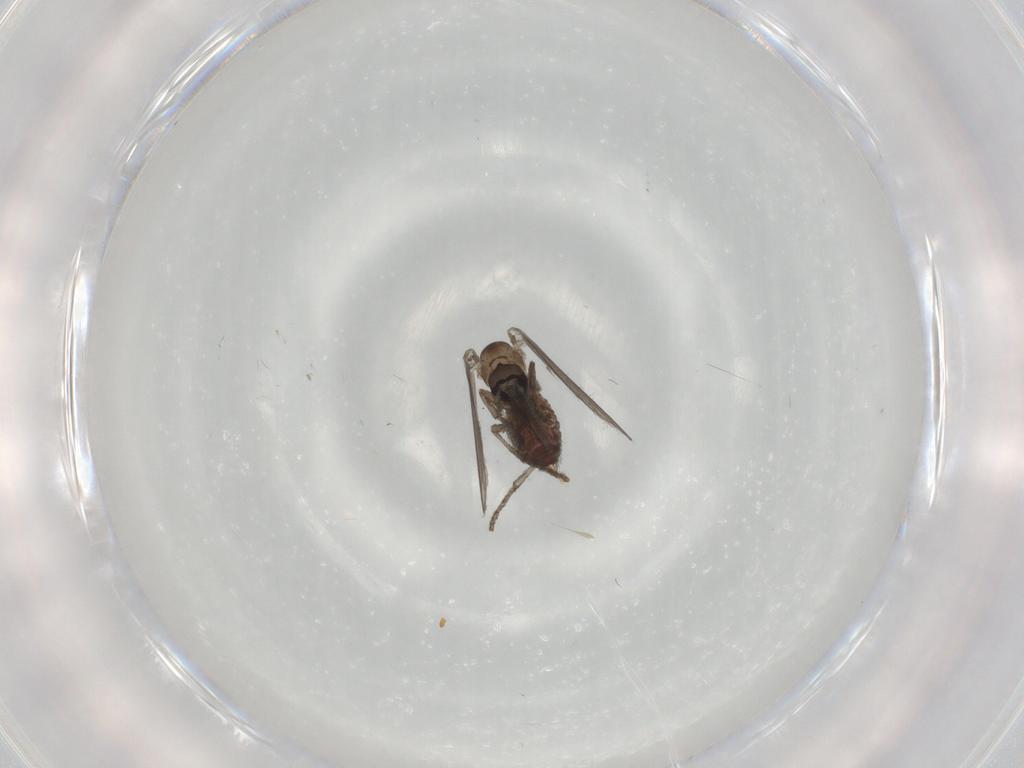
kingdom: Animalia
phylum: Arthropoda
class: Insecta
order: Diptera
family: Psychodidae
